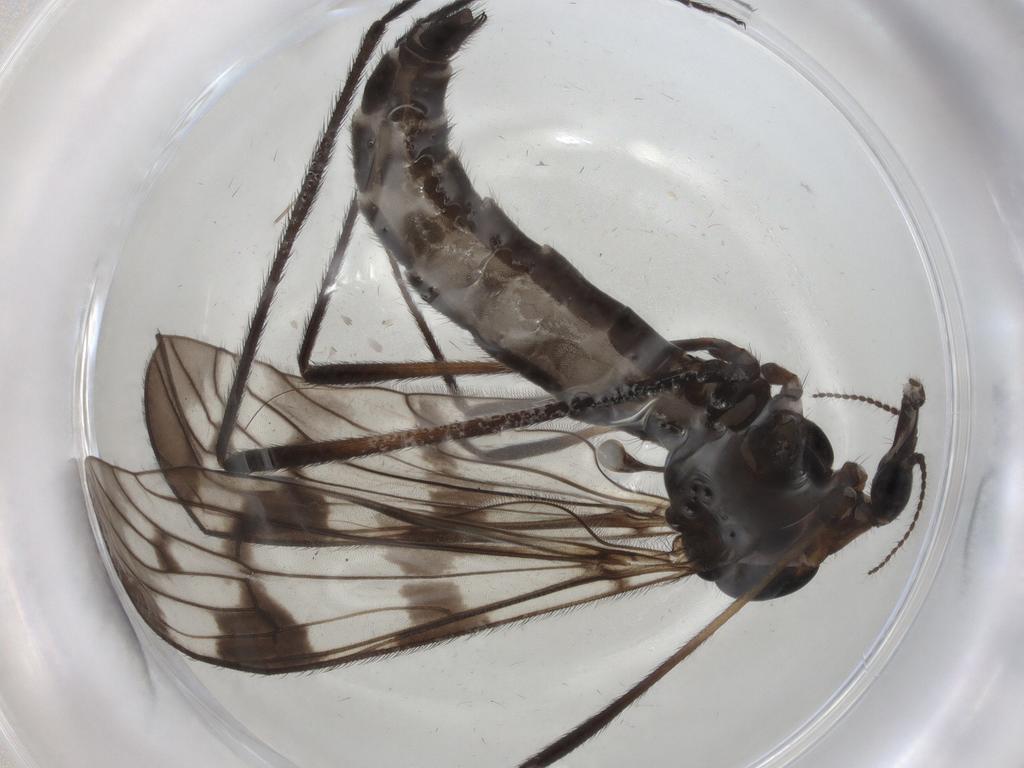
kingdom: Animalia
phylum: Arthropoda
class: Insecta
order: Diptera
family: Limoniidae
